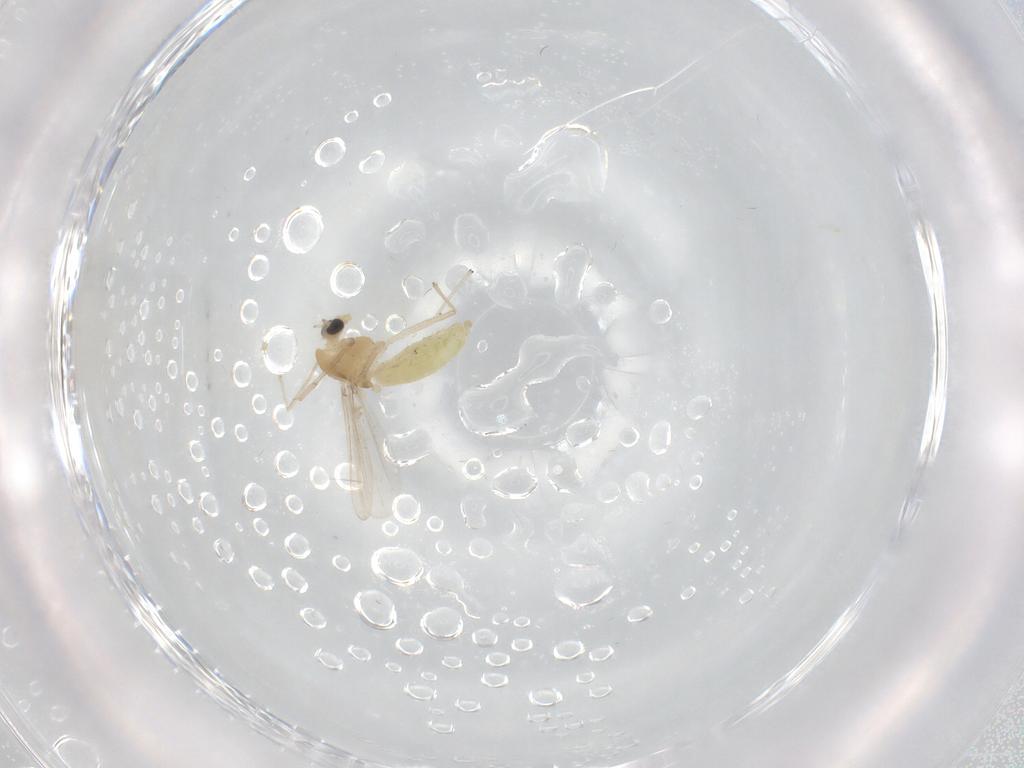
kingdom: Animalia
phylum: Arthropoda
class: Insecta
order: Diptera
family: Chironomidae
